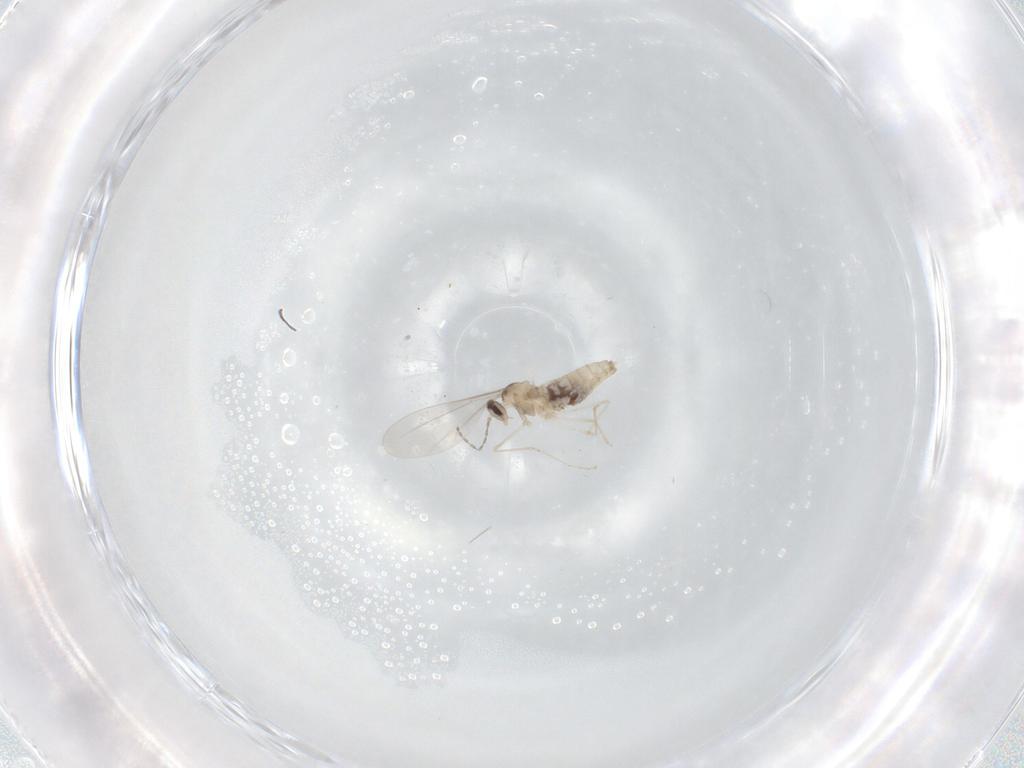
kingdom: Animalia
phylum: Arthropoda
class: Insecta
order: Diptera
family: Cecidomyiidae
